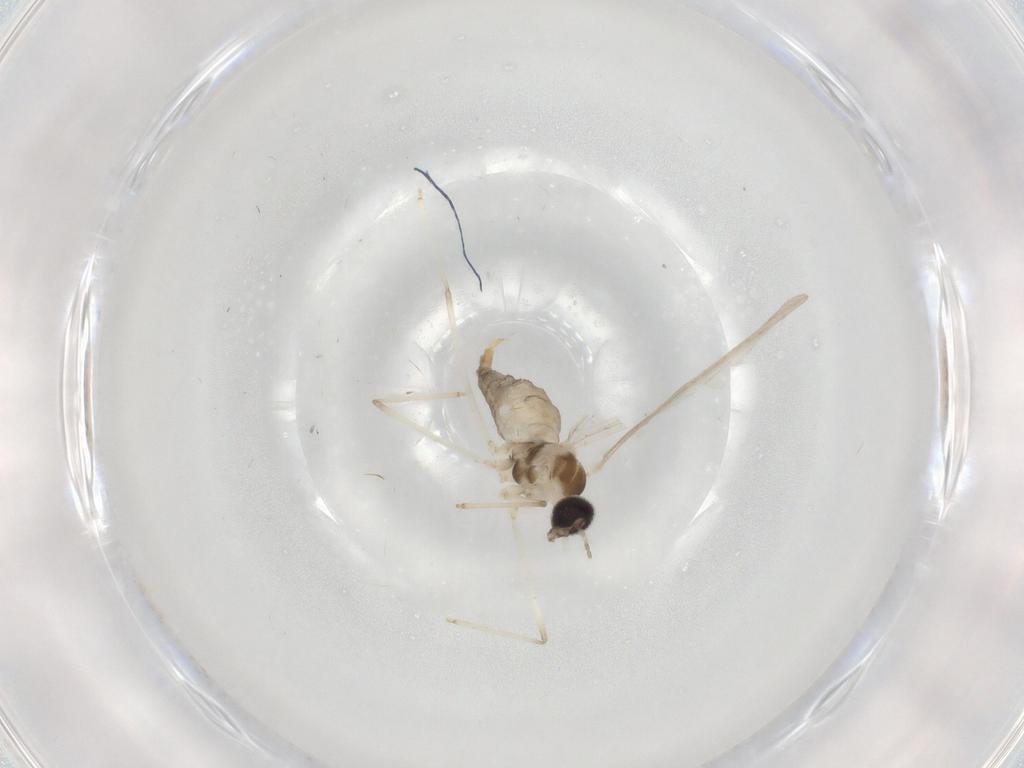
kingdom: Animalia
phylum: Arthropoda
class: Insecta
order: Diptera
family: Cecidomyiidae
